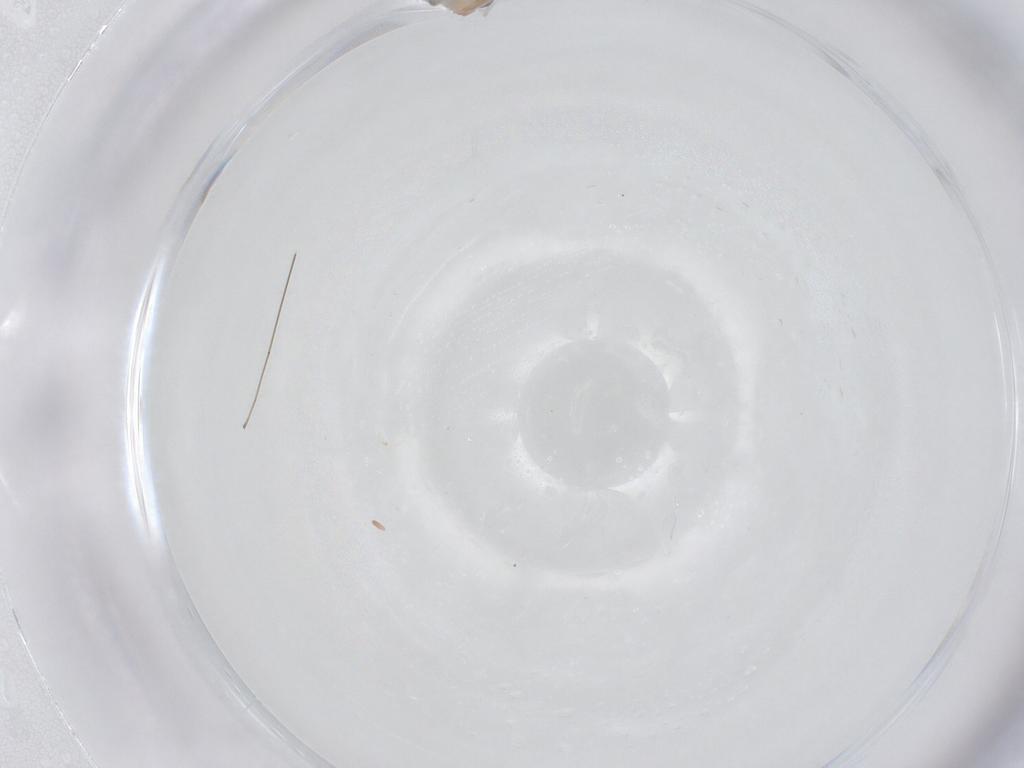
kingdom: Animalia
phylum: Arthropoda
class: Insecta
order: Diptera
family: Cecidomyiidae
